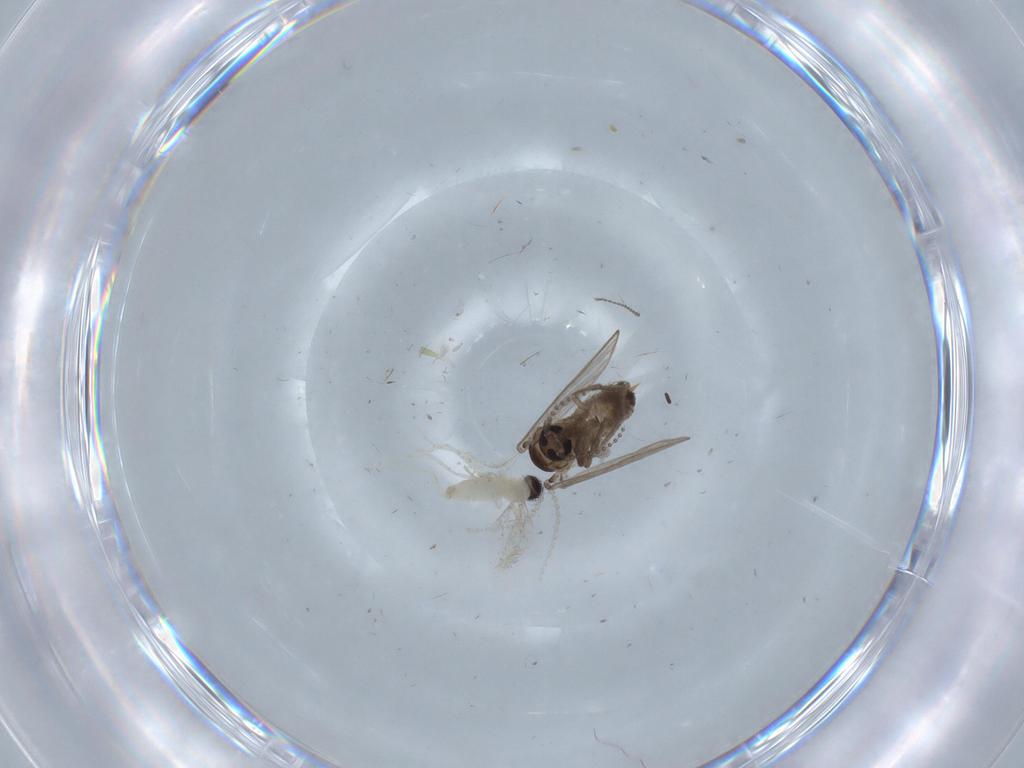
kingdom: Animalia
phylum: Arthropoda
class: Insecta
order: Diptera
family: Cecidomyiidae
